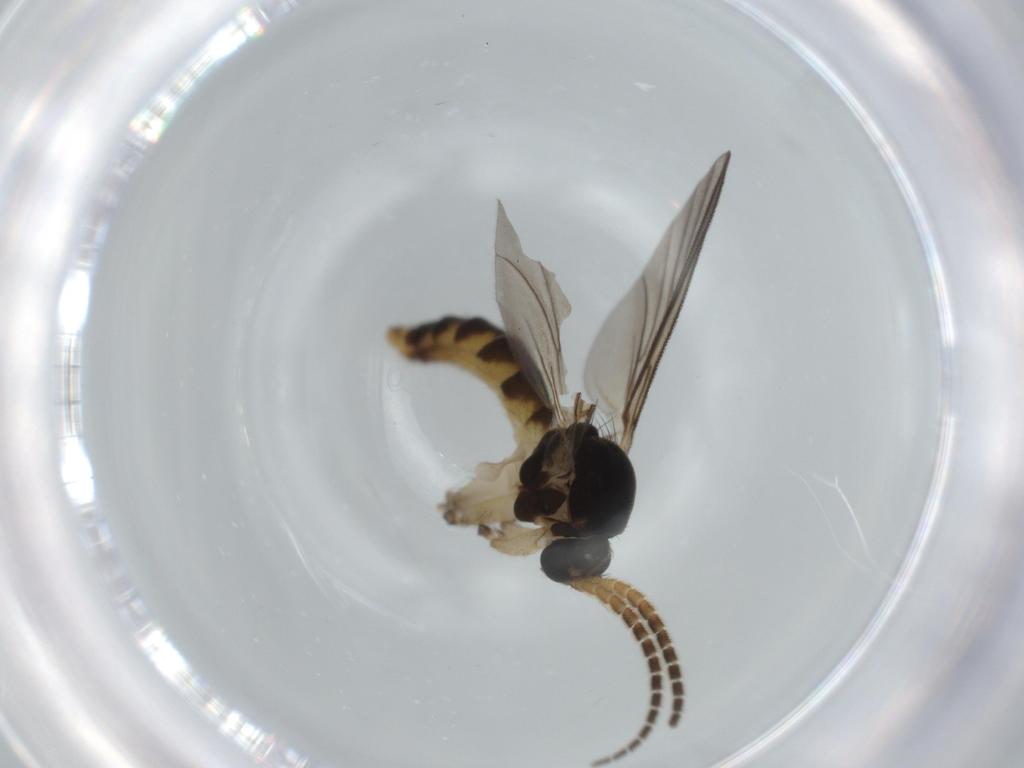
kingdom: Animalia
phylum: Arthropoda
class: Insecta
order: Diptera
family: Sciaridae
